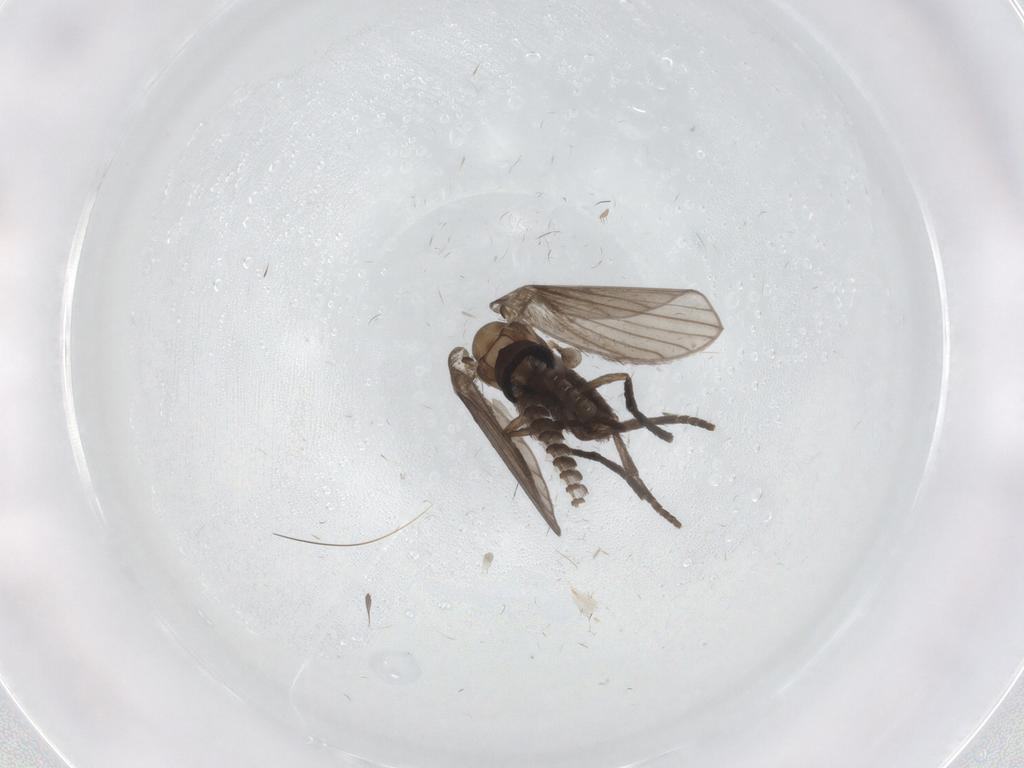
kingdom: Animalia
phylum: Arthropoda
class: Insecta
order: Diptera
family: Psychodidae
